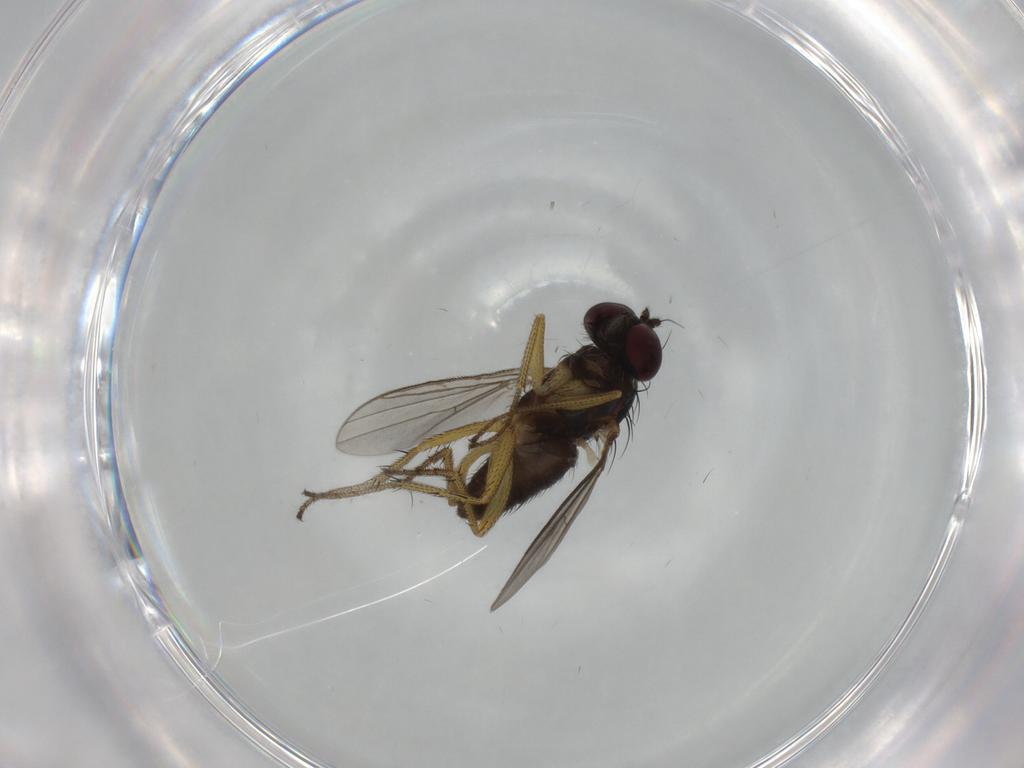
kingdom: Animalia
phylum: Arthropoda
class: Insecta
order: Diptera
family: Dolichopodidae
